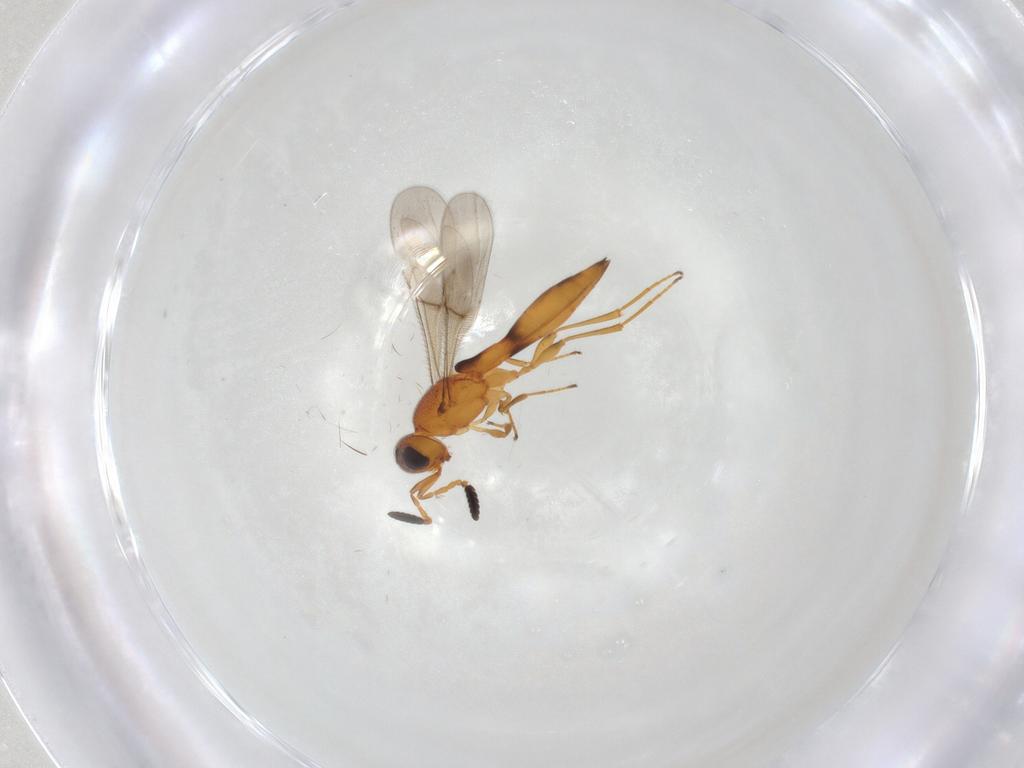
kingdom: Animalia
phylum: Arthropoda
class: Insecta
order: Hymenoptera
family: Scelionidae
